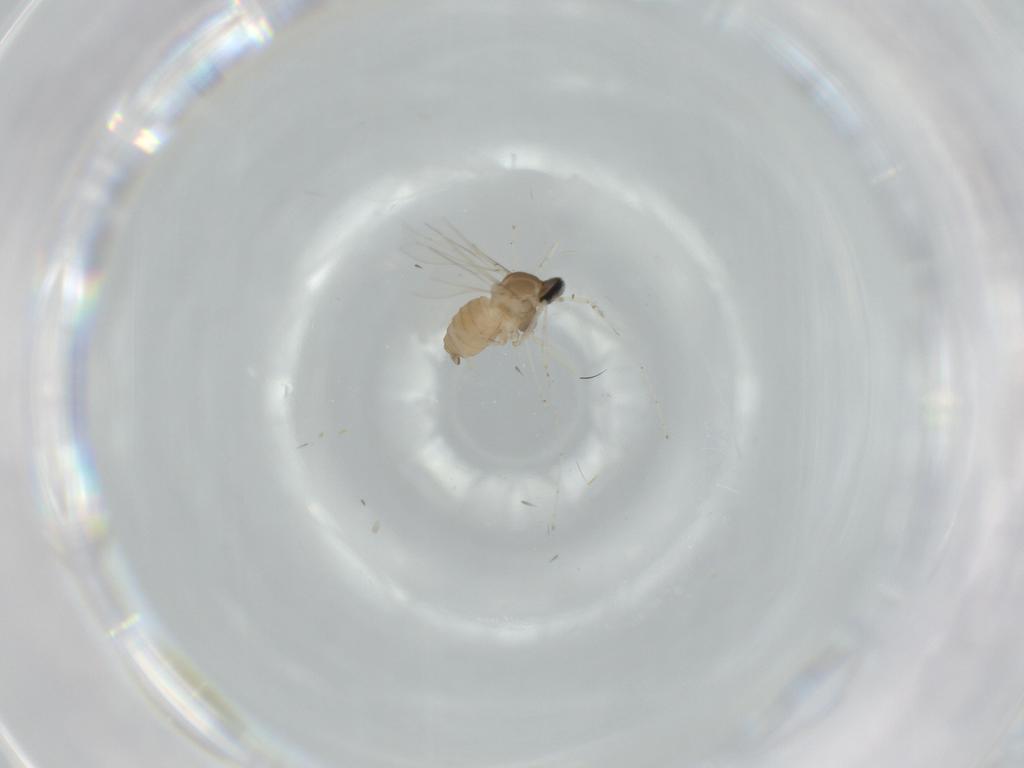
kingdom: Animalia
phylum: Arthropoda
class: Insecta
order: Diptera
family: Cecidomyiidae
